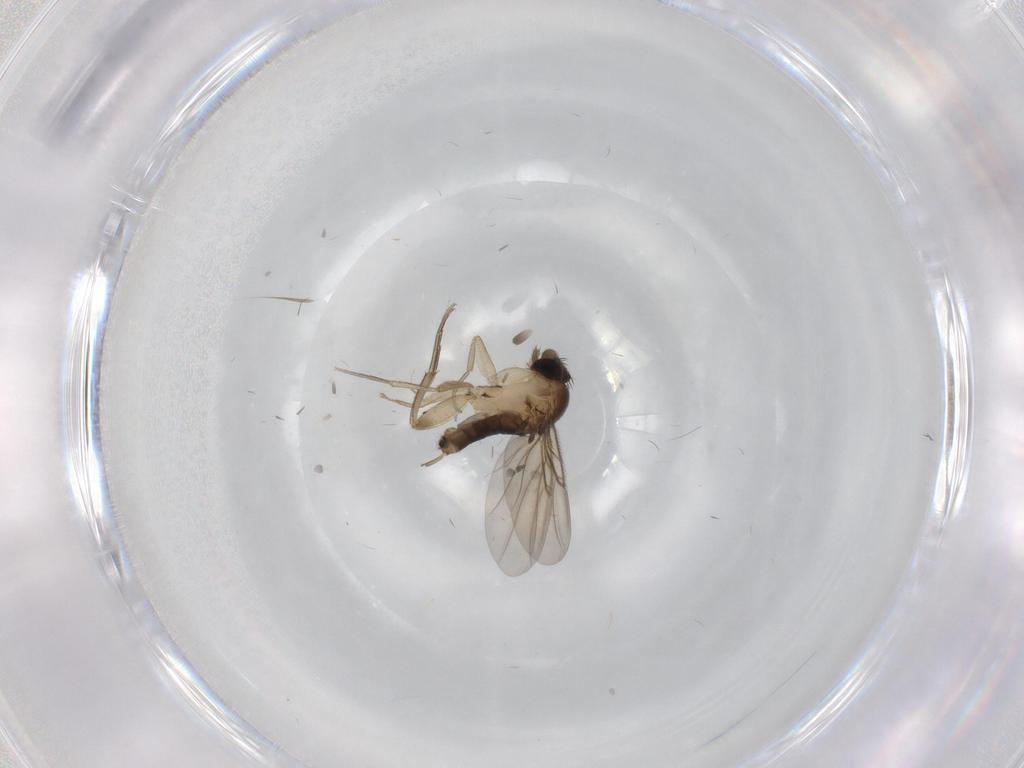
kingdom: Animalia
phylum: Arthropoda
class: Insecta
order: Diptera
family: Phoridae
